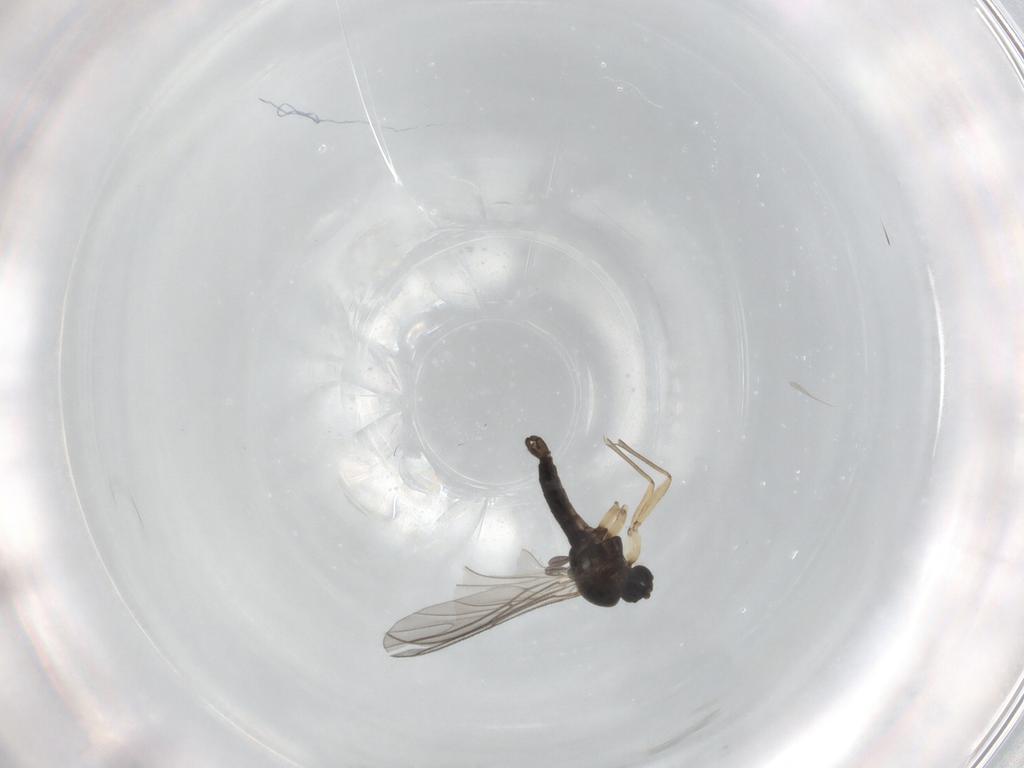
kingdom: Animalia
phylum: Arthropoda
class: Insecta
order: Diptera
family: Sciaridae
